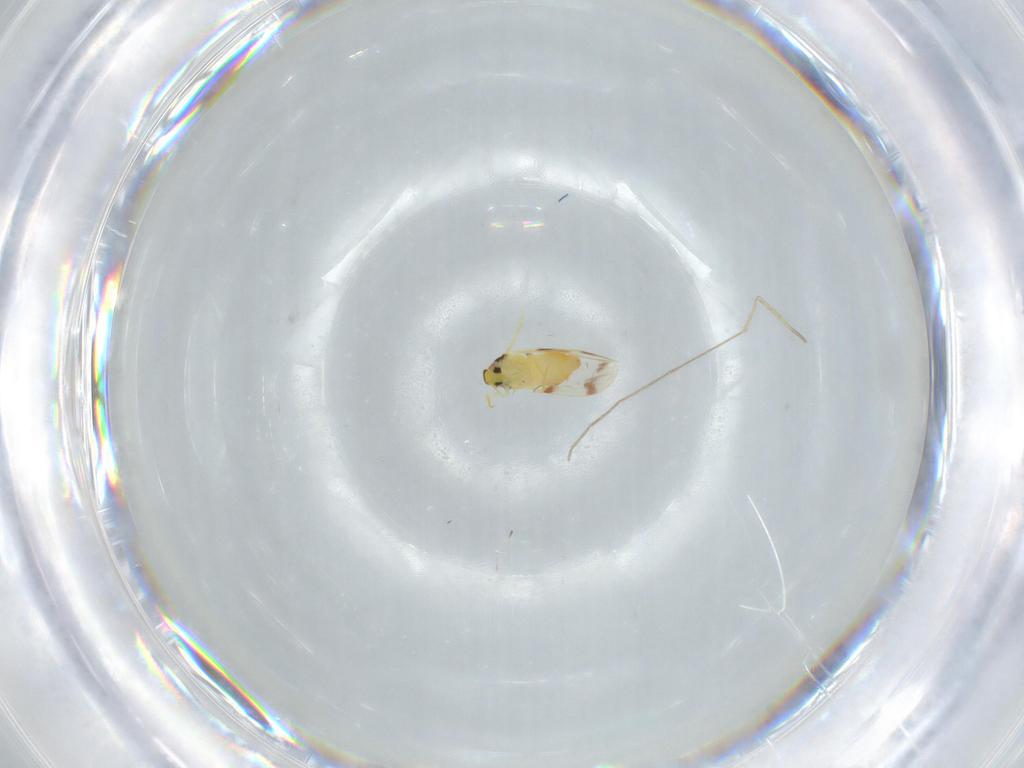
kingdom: Animalia
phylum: Arthropoda
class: Insecta
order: Hemiptera
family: Aleyrodidae
